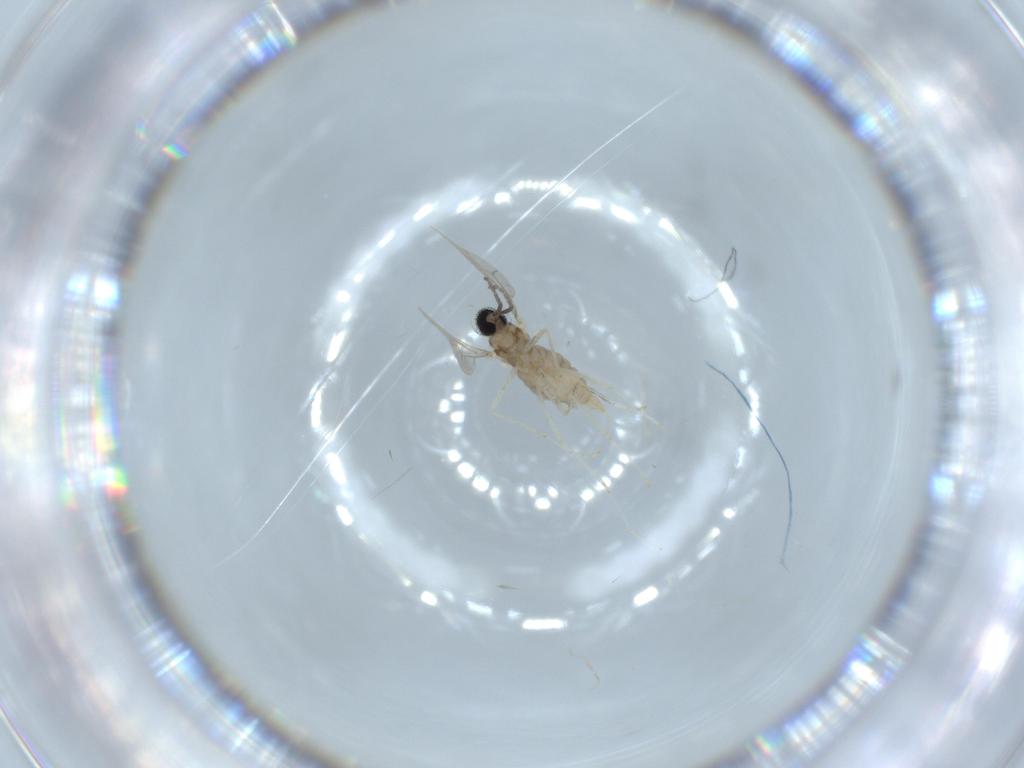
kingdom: Animalia
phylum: Arthropoda
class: Insecta
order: Diptera
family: Cecidomyiidae
